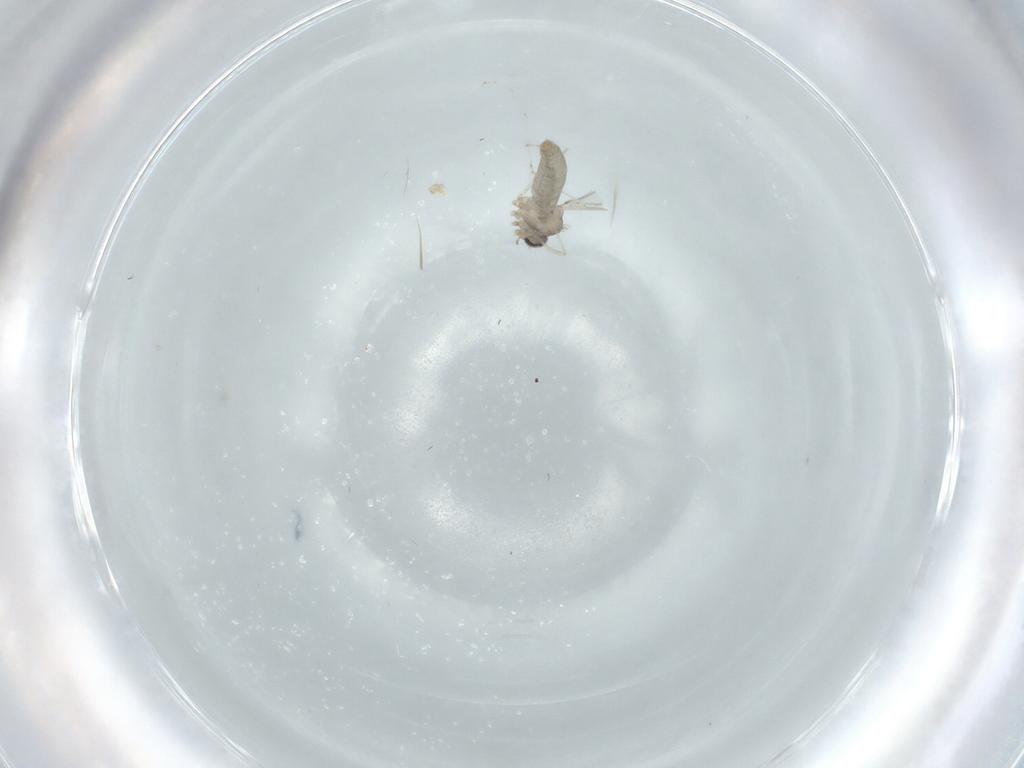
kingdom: Animalia
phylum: Arthropoda
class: Insecta
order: Diptera
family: Cecidomyiidae
